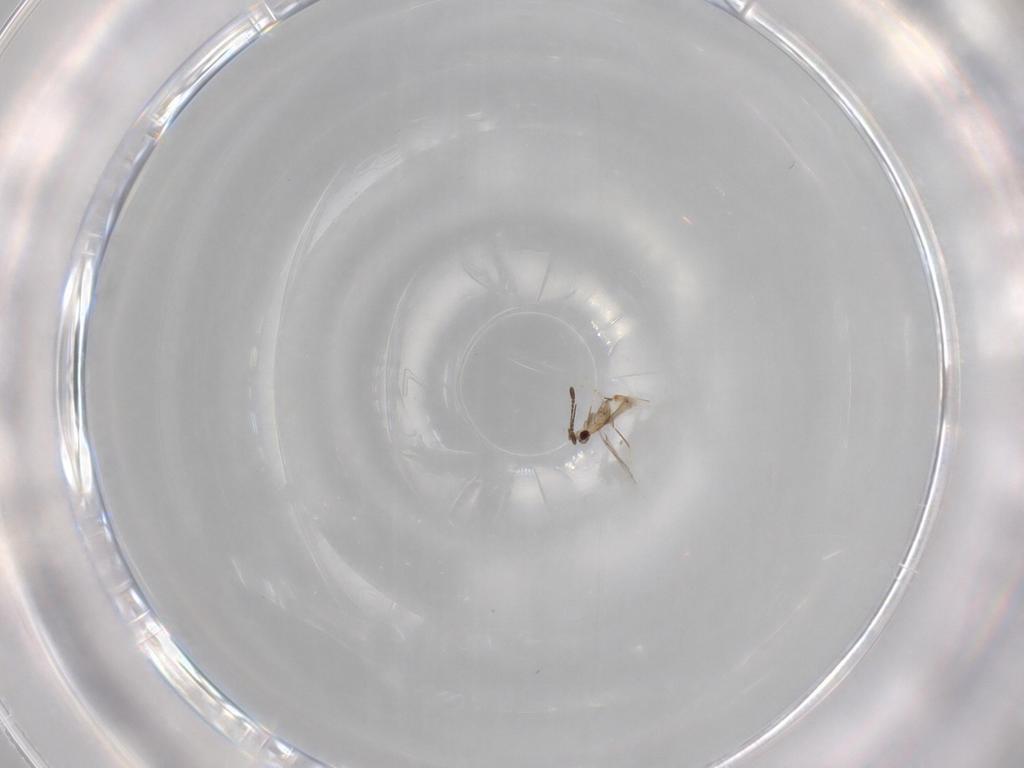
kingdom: Animalia
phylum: Arthropoda
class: Insecta
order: Hymenoptera
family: Mymaridae
